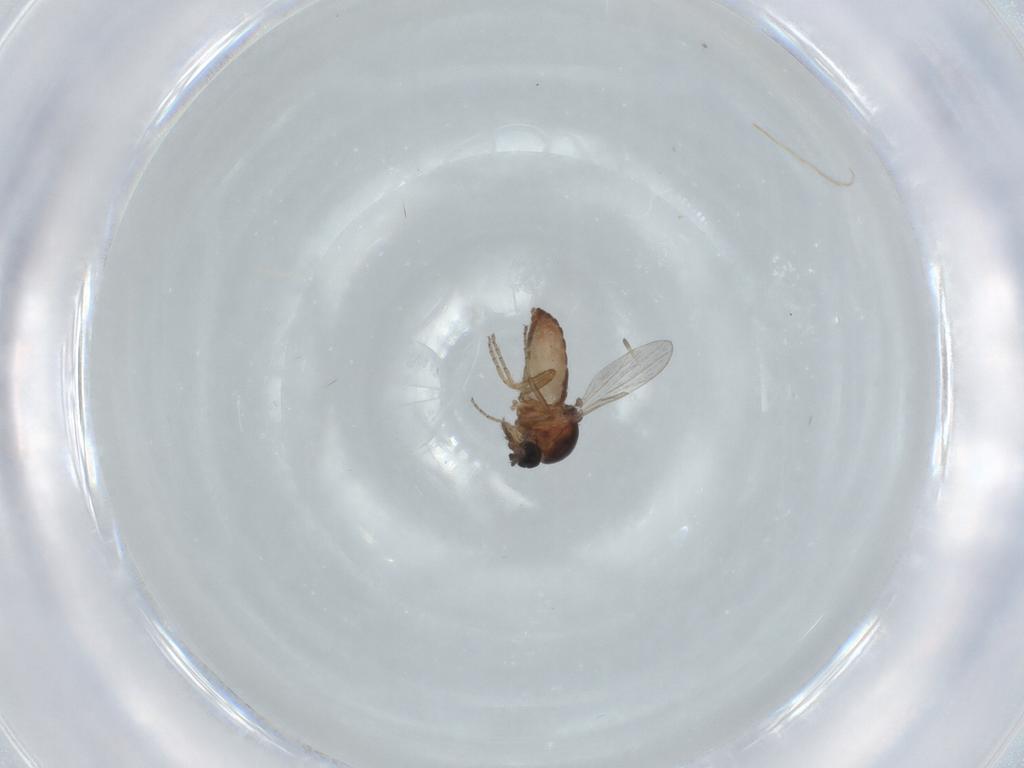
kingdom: Animalia
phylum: Arthropoda
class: Insecta
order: Diptera
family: Ceratopogonidae
